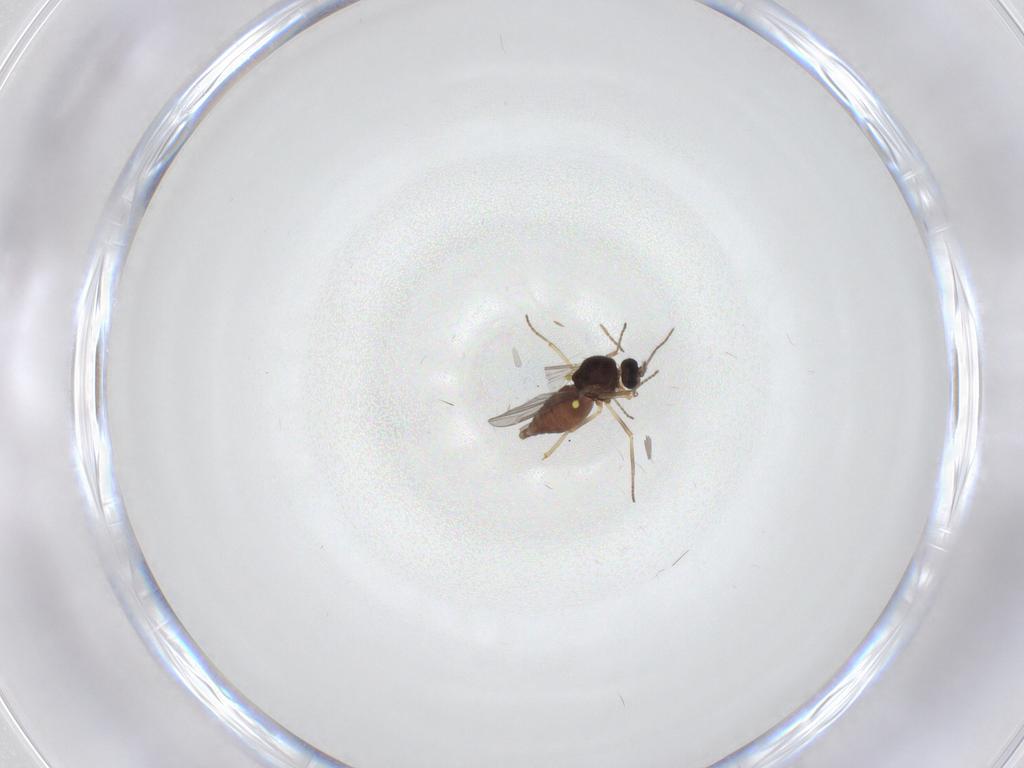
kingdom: Animalia
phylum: Arthropoda
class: Insecta
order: Diptera
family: Ceratopogonidae
